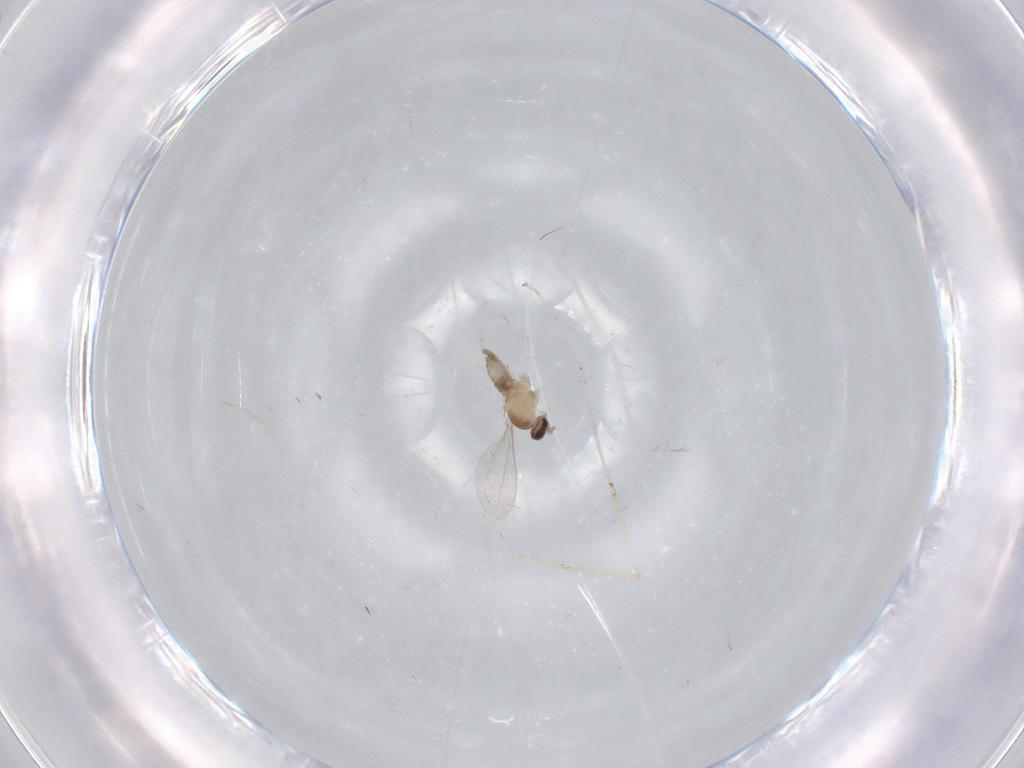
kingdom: Animalia
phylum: Arthropoda
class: Insecta
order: Diptera
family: Cecidomyiidae
